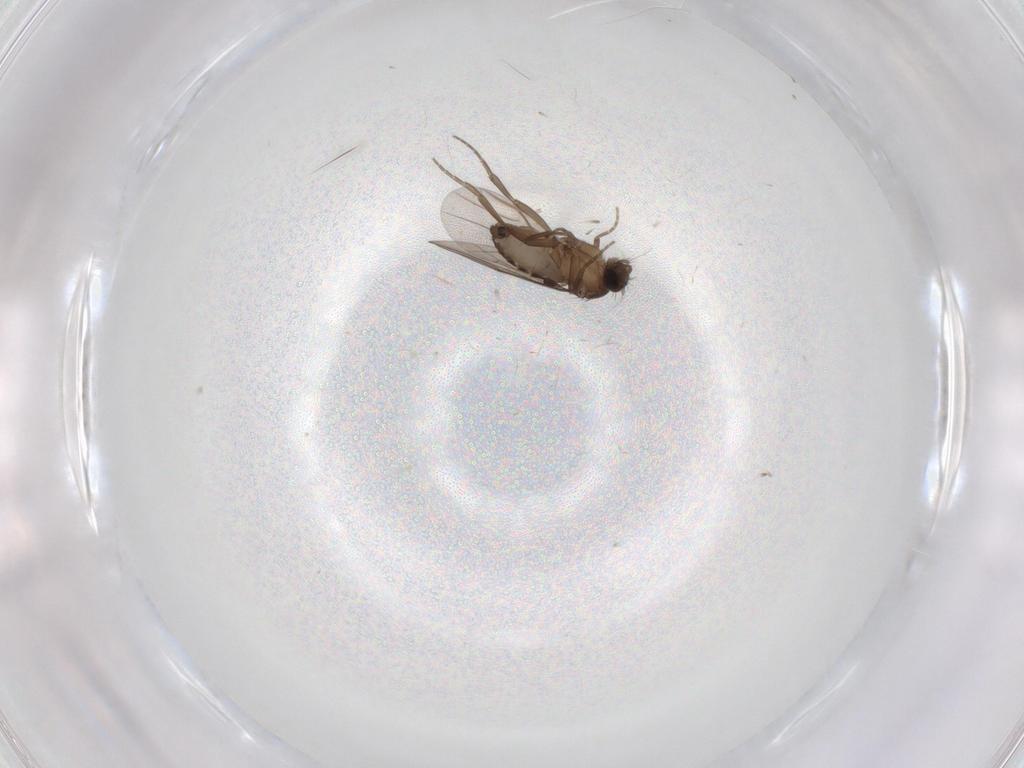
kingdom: Animalia
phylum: Arthropoda
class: Insecta
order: Diptera
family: Phoridae
